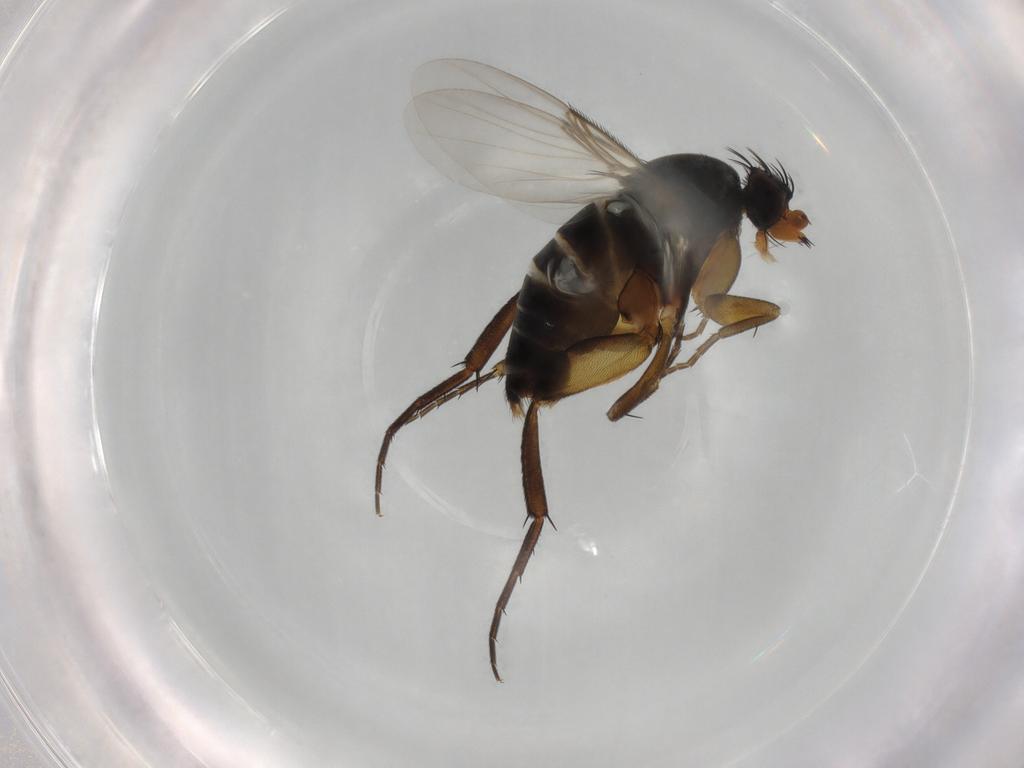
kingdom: Animalia
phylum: Arthropoda
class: Insecta
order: Diptera
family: Phoridae
